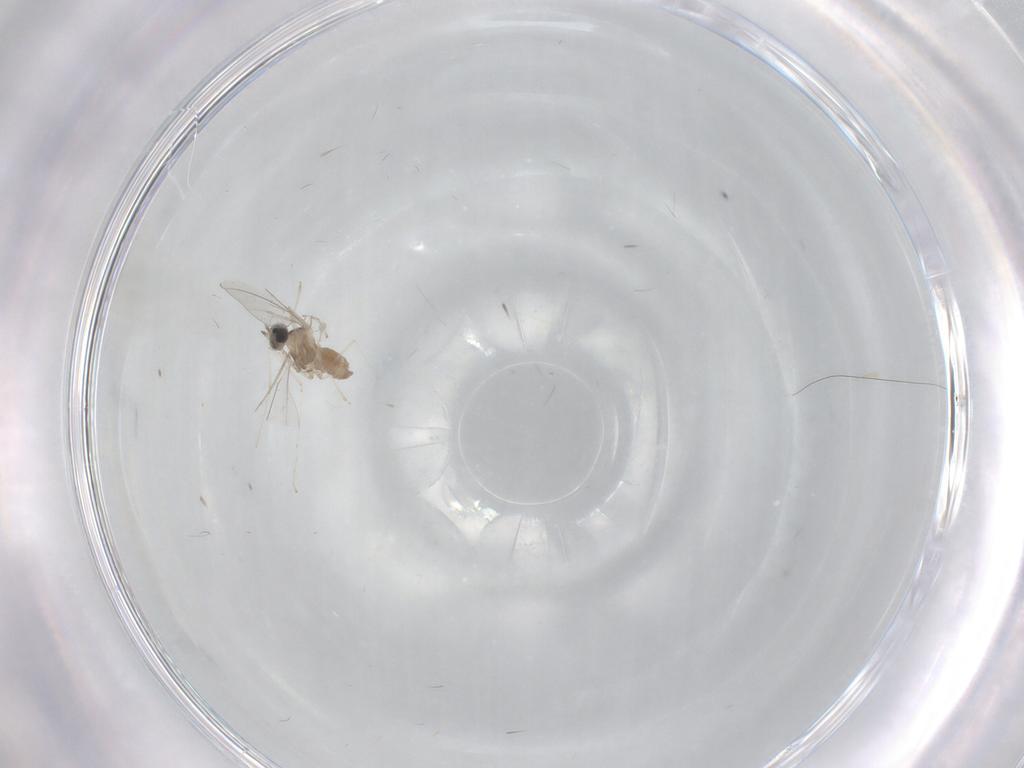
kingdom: Animalia
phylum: Arthropoda
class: Insecta
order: Diptera
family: Cecidomyiidae
